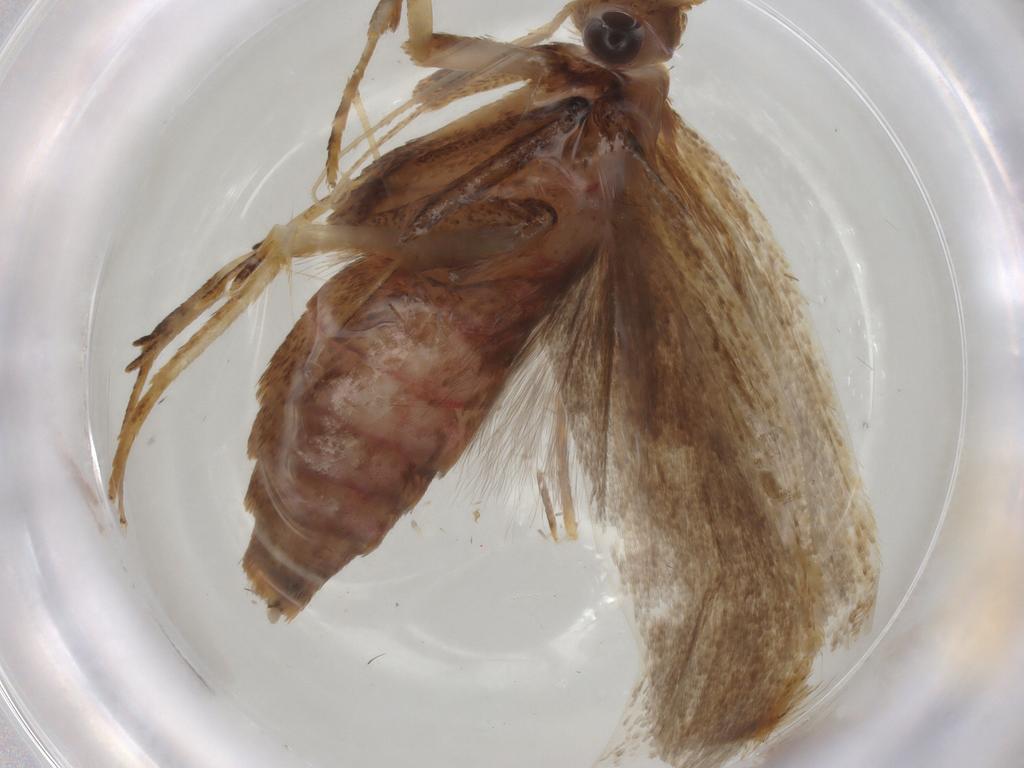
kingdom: Animalia
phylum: Arthropoda
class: Insecta
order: Lepidoptera
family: Lecithoceridae
